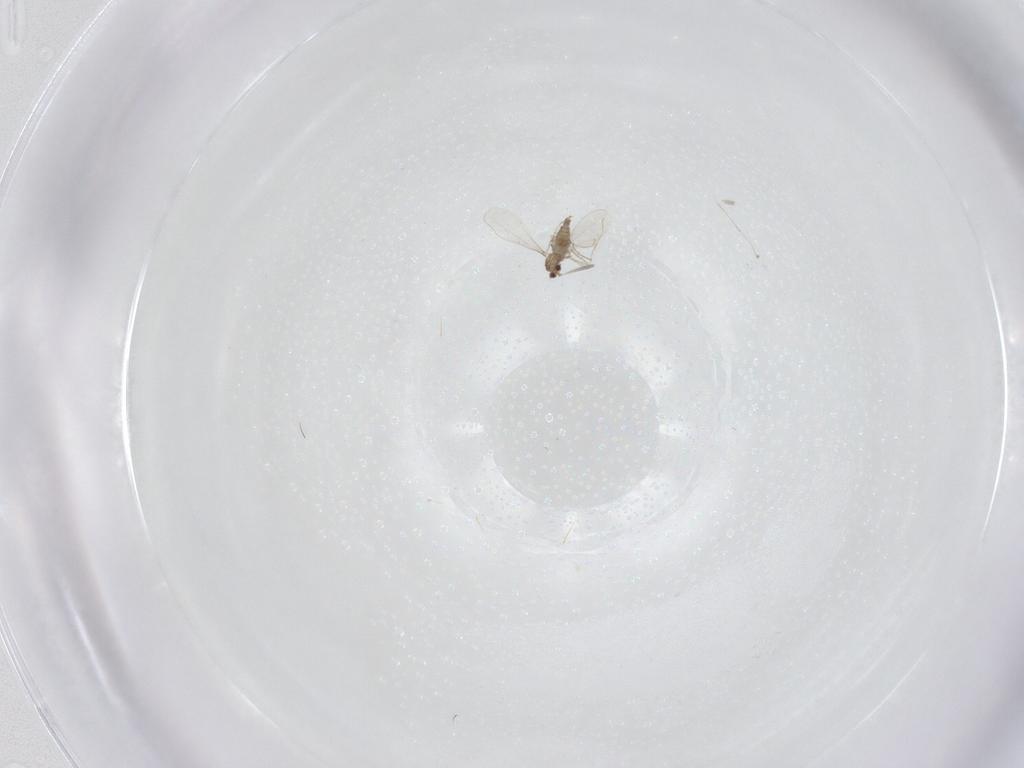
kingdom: Animalia
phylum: Arthropoda
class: Insecta
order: Diptera
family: Cecidomyiidae
